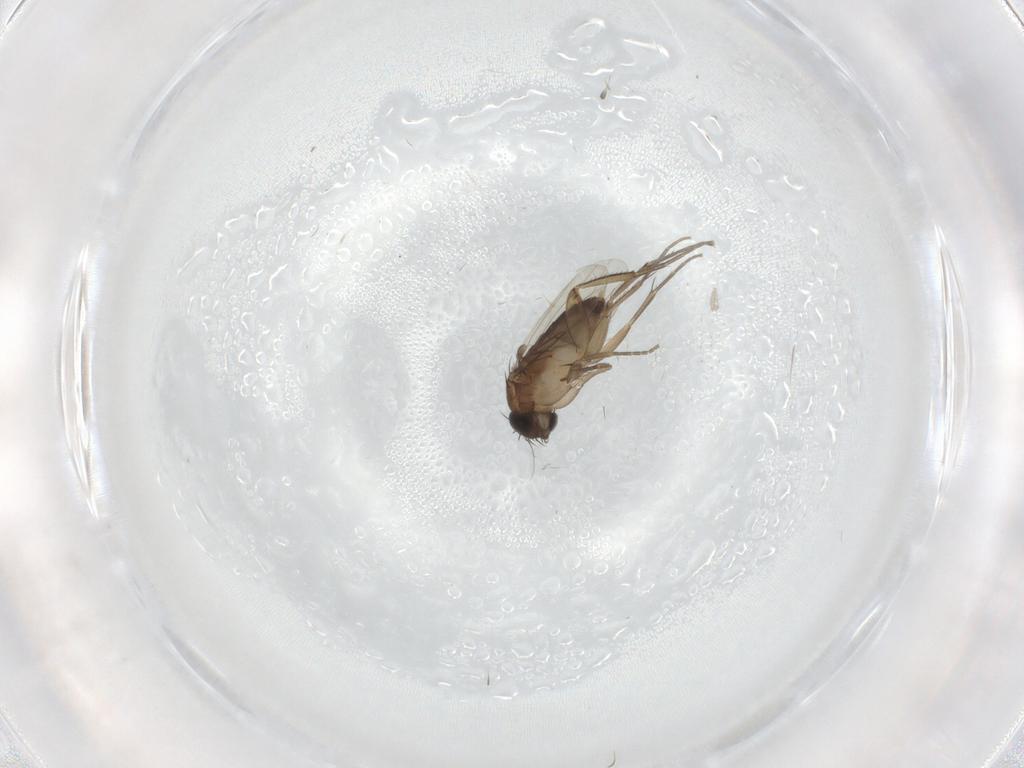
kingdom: Animalia
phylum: Arthropoda
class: Insecta
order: Diptera
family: Phoridae
